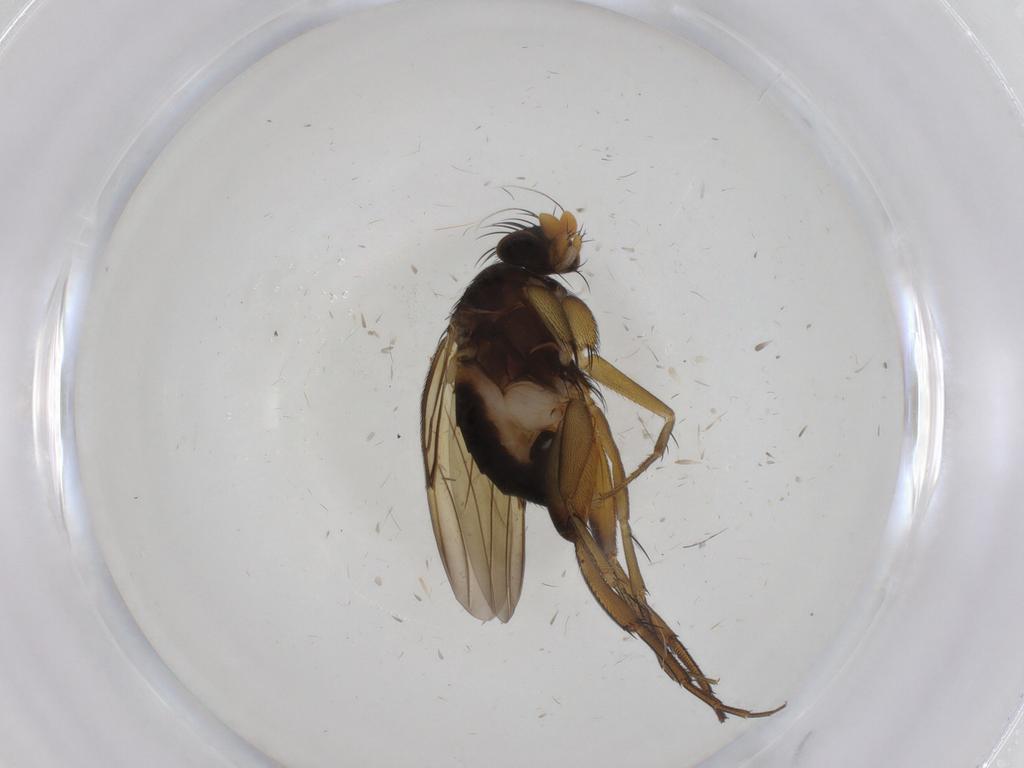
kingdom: Animalia
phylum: Arthropoda
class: Insecta
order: Diptera
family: Phoridae
